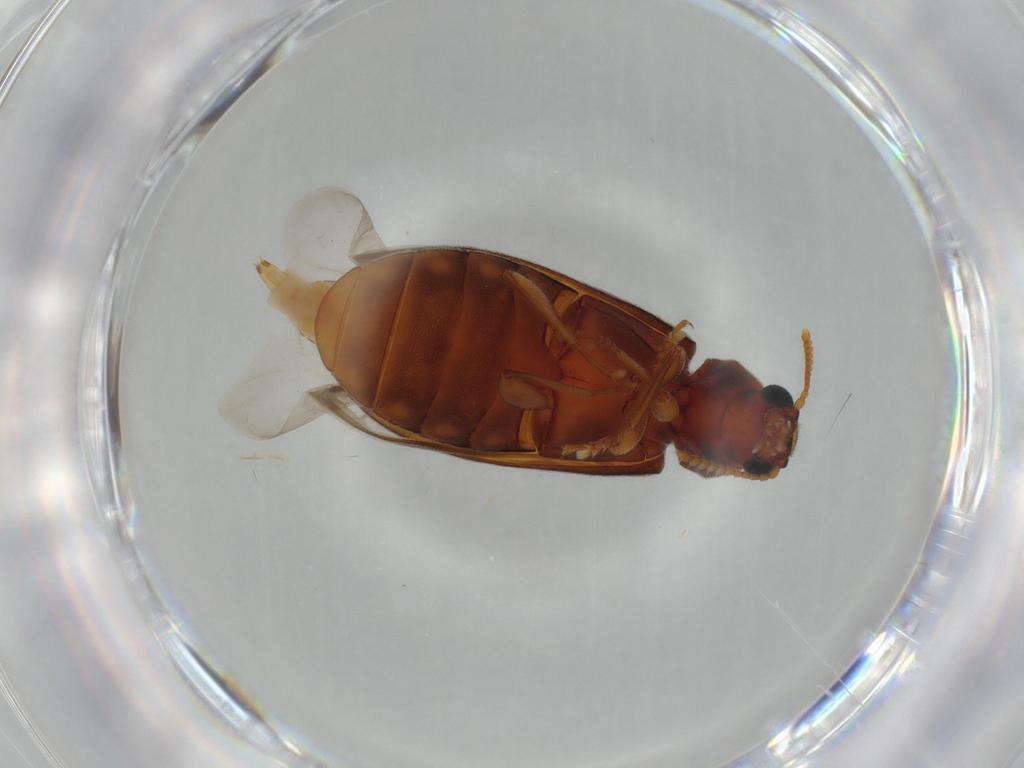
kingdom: Animalia
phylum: Arthropoda
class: Insecta
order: Coleoptera
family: Mycteridae
